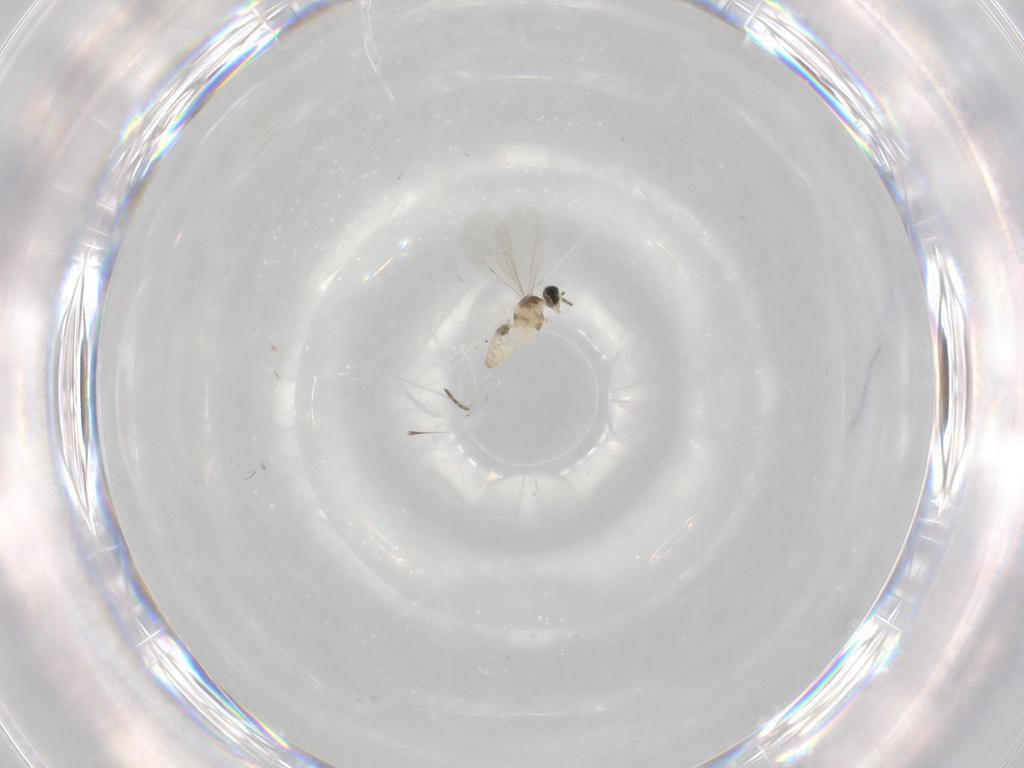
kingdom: Animalia
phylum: Arthropoda
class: Insecta
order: Diptera
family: Cecidomyiidae
